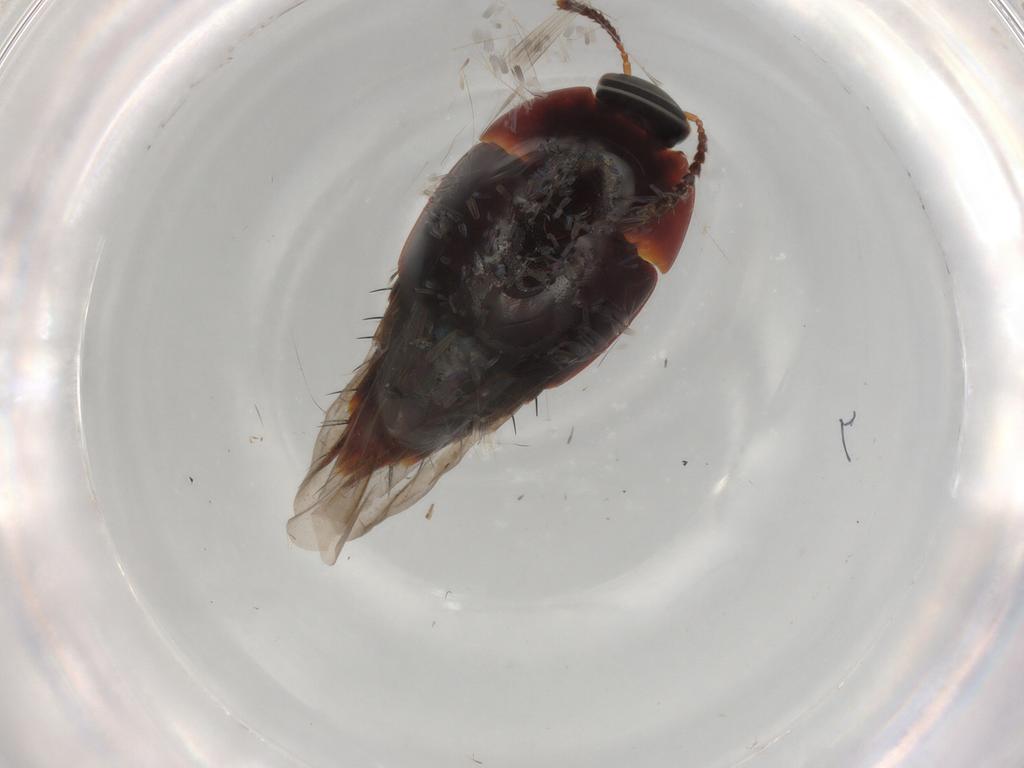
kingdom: Animalia
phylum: Arthropoda
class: Insecta
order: Coleoptera
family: Staphylinidae
